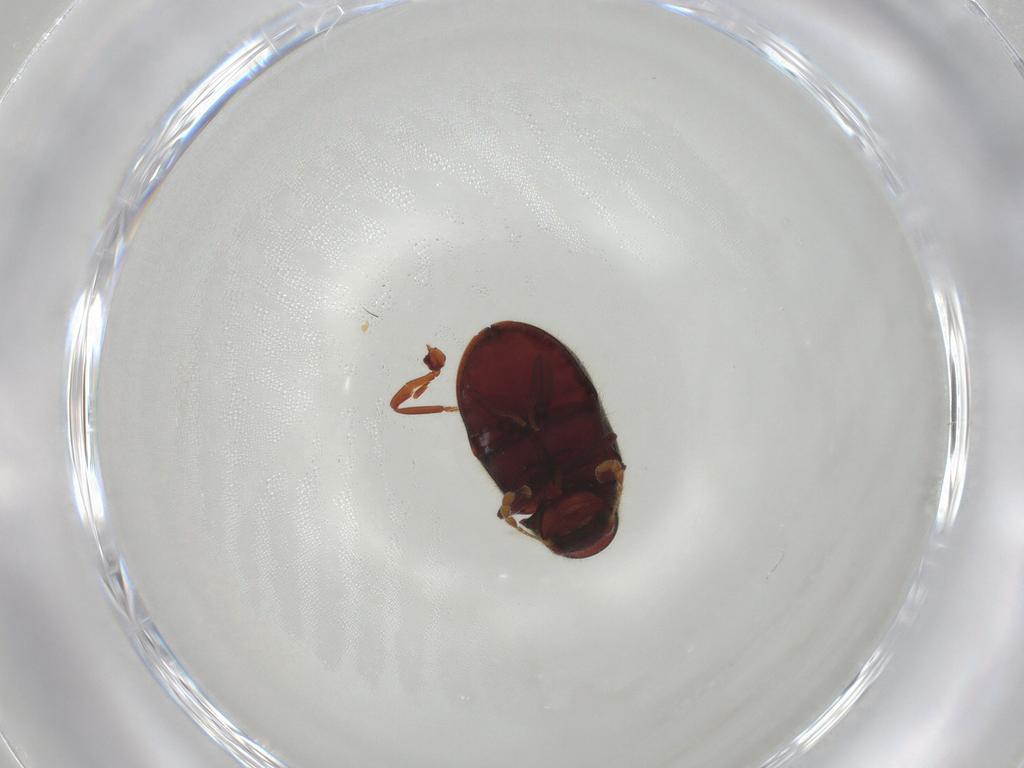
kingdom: Animalia
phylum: Arthropoda
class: Insecta
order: Coleoptera
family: Ptinidae
